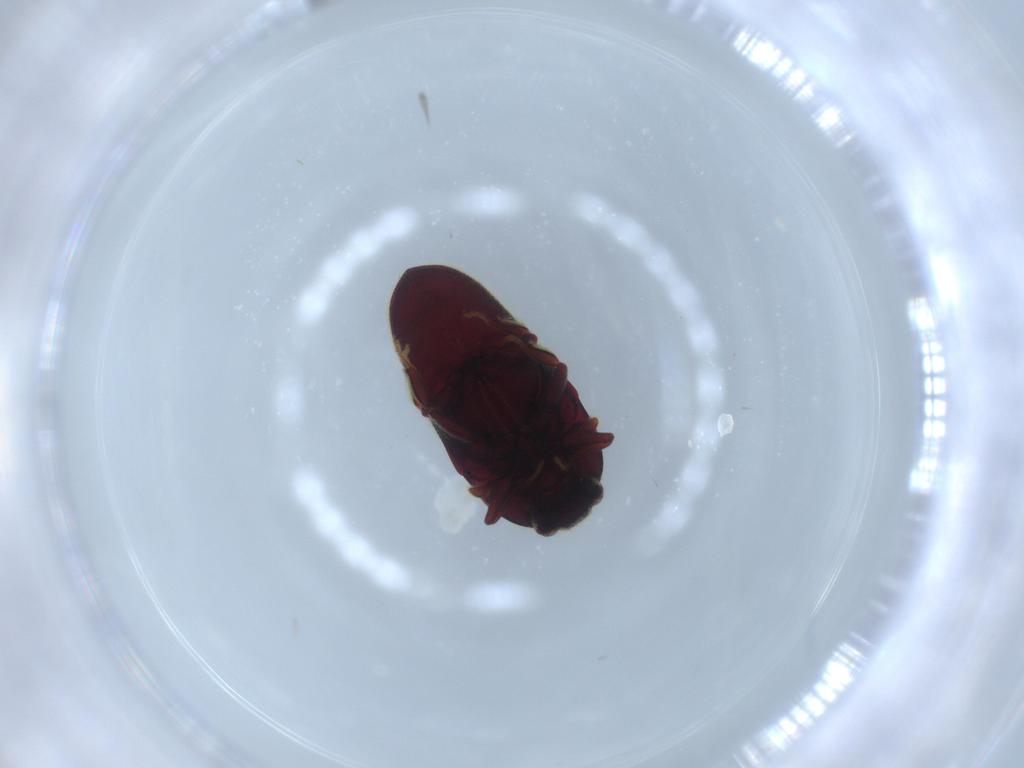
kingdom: Animalia
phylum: Arthropoda
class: Insecta
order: Coleoptera
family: Throscidae
